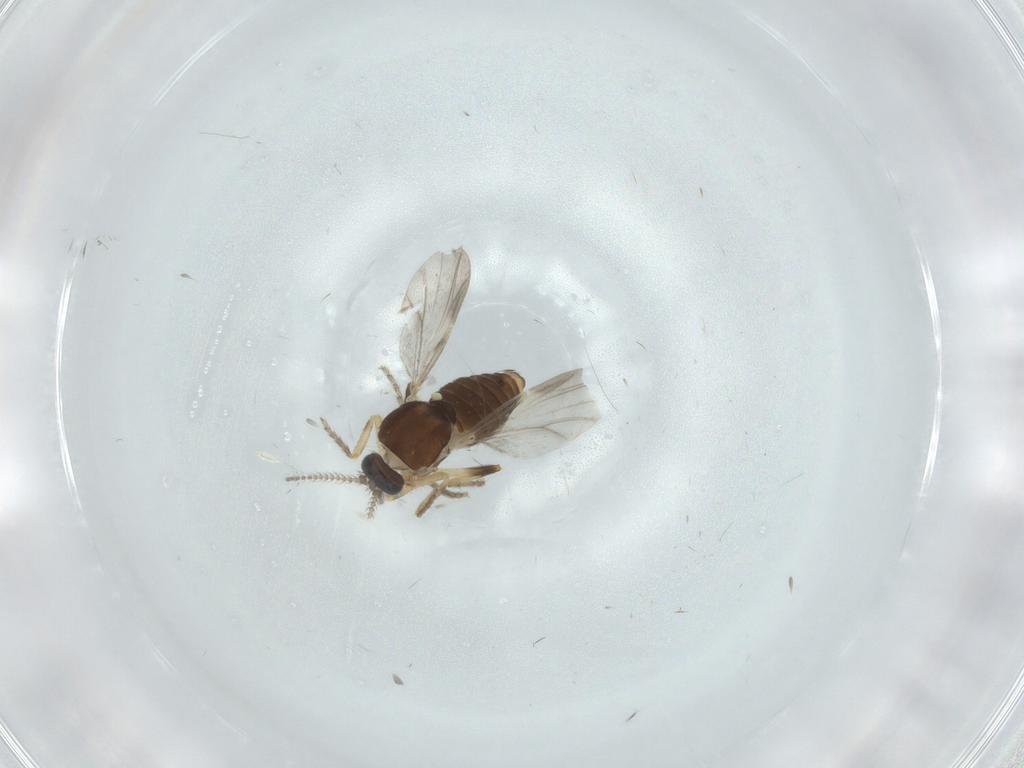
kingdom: Animalia
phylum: Arthropoda
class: Insecta
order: Diptera
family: Ceratopogonidae
